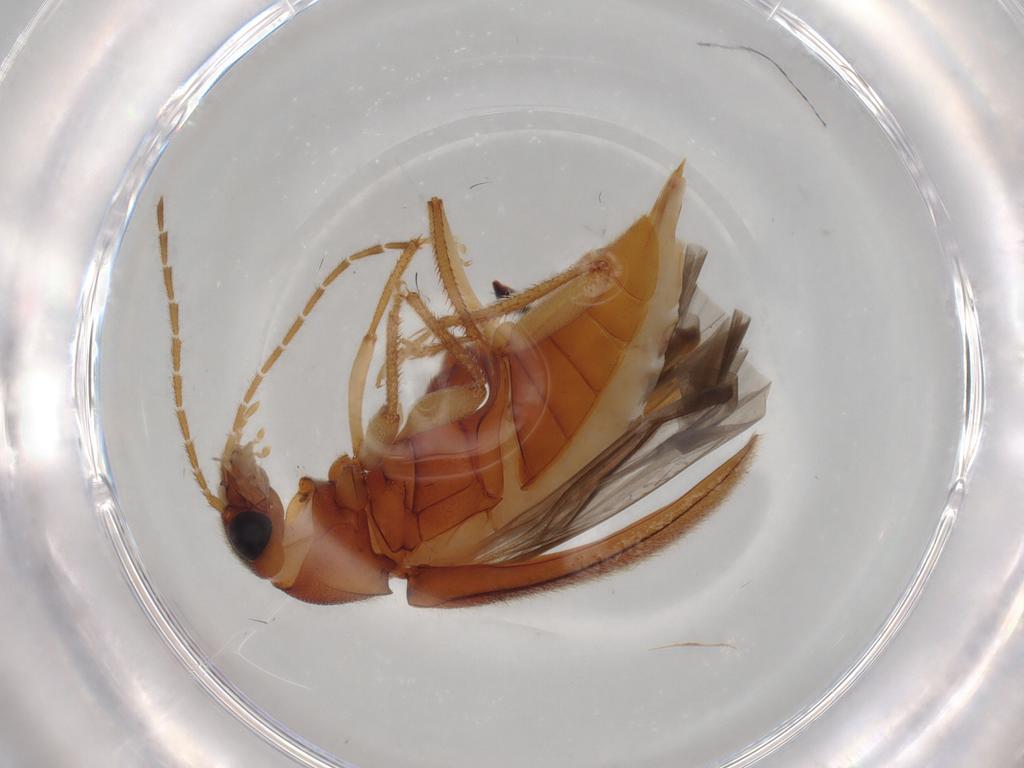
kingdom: Animalia
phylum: Arthropoda
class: Insecta
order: Coleoptera
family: Ptilodactylidae
